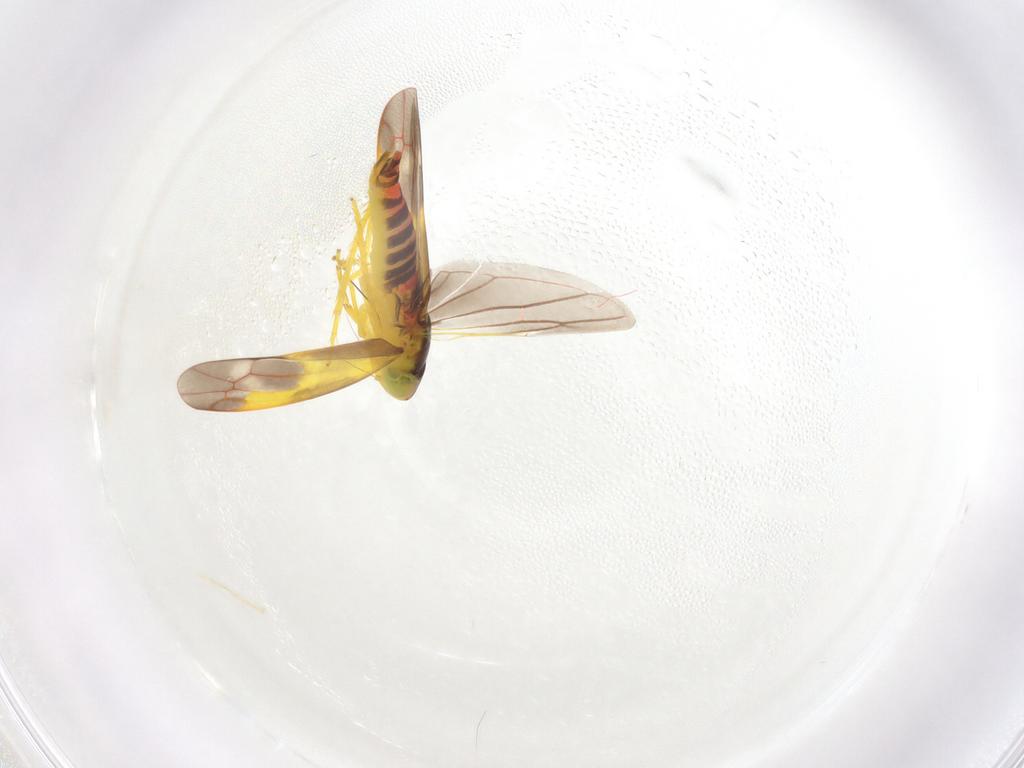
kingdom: Animalia
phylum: Arthropoda
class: Insecta
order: Hemiptera
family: Cicadellidae
